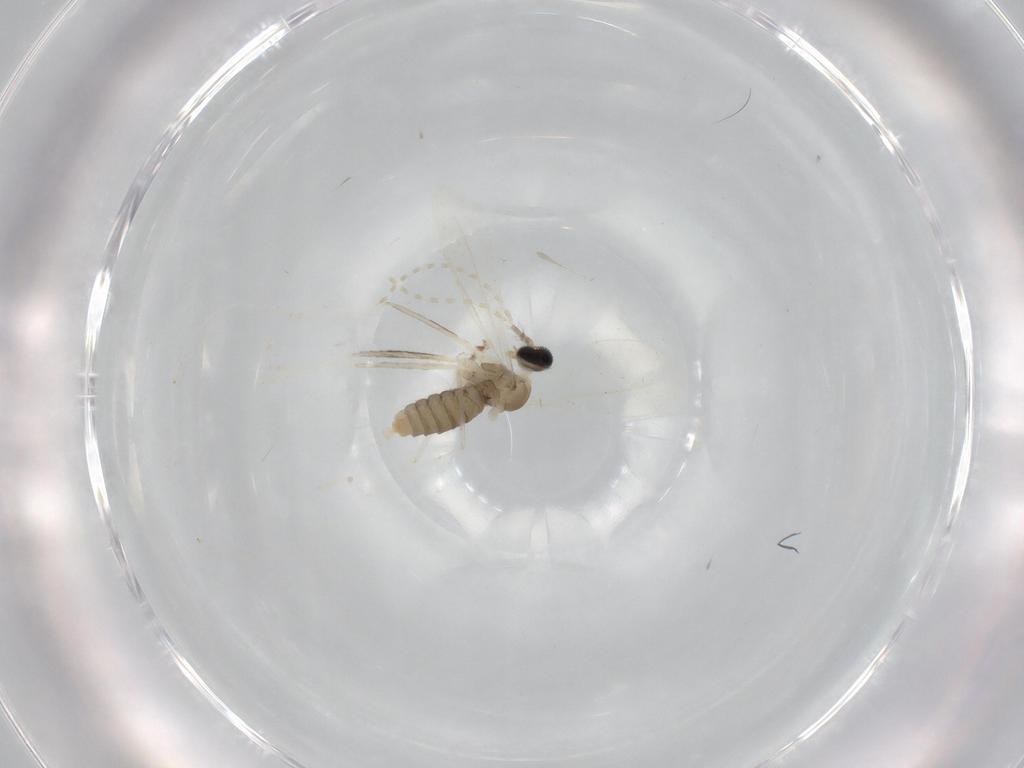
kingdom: Animalia
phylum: Arthropoda
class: Insecta
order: Diptera
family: Cecidomyiidae
